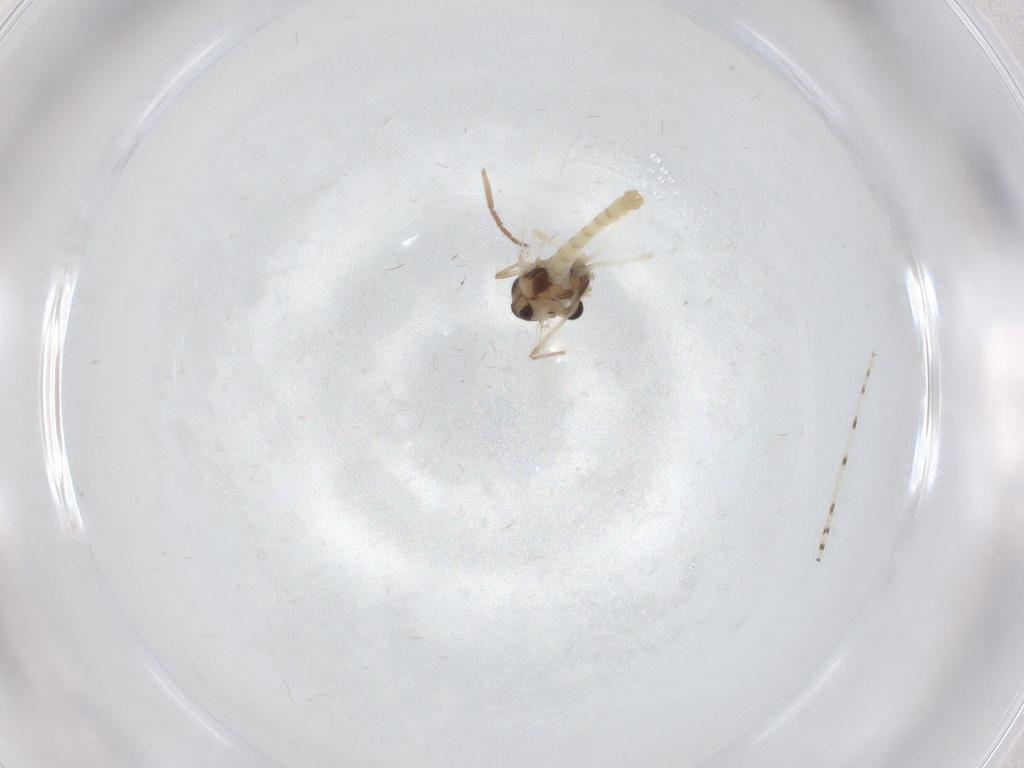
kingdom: Animalia
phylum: Arthropoda
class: Insecta
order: Diptera
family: Chironomidae
